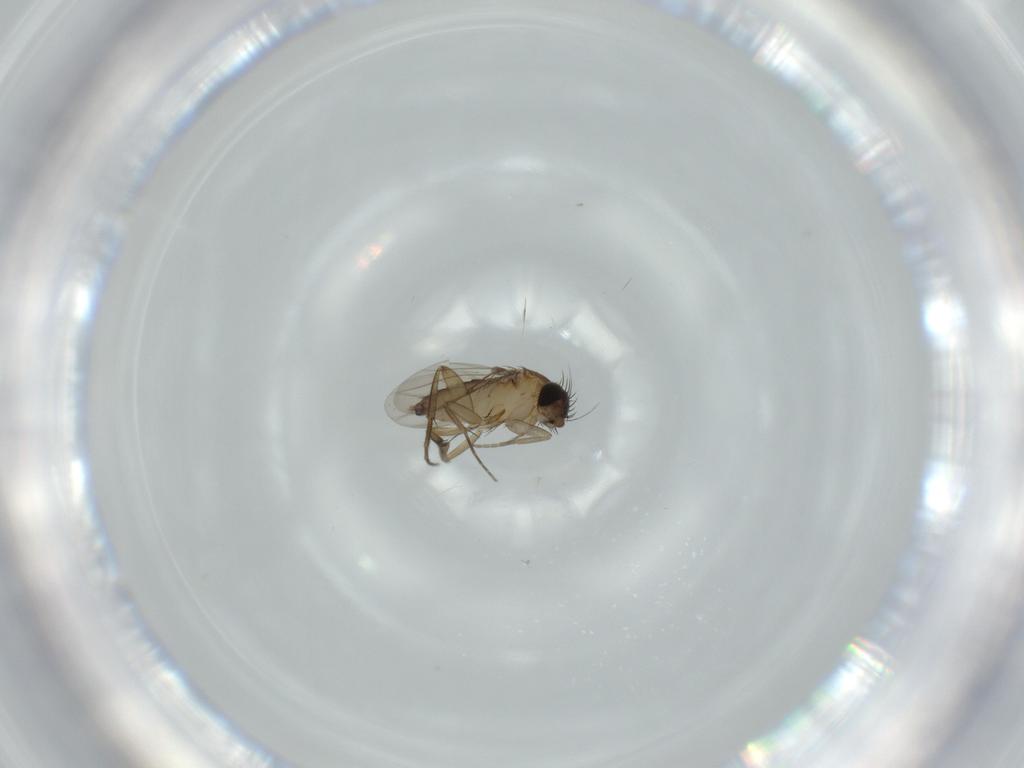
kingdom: Animalia
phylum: Arthropoda
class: Insecta
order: Diptera
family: Phoridae
